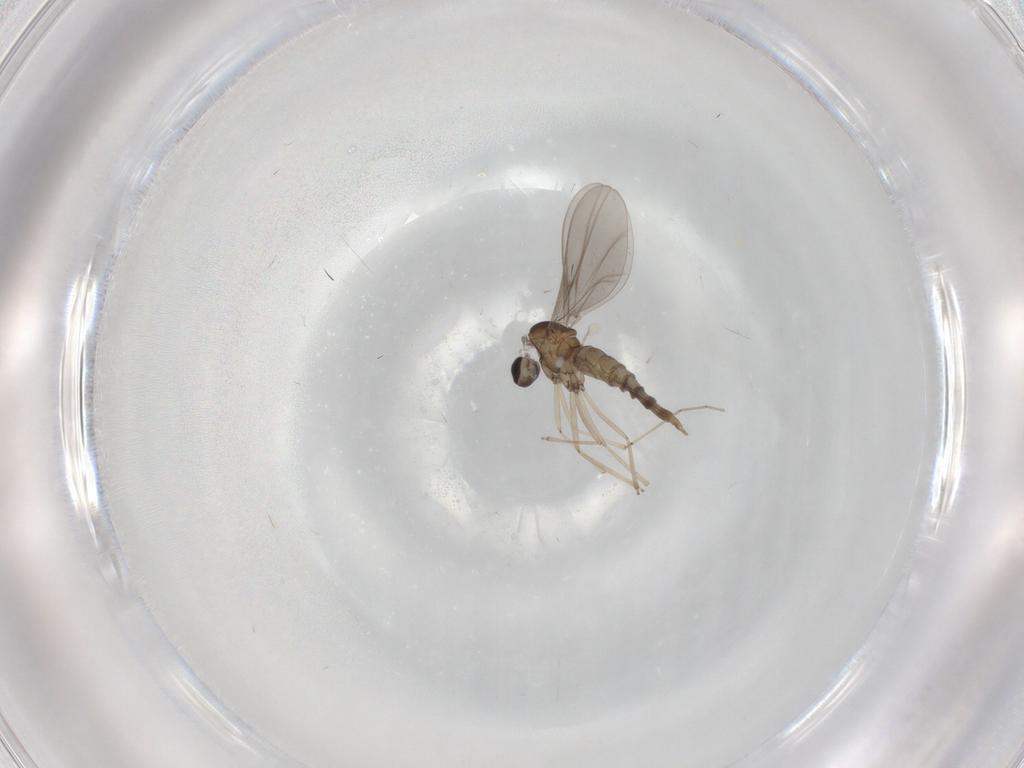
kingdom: Animalia
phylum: Arthropoda
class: Insecta
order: Diptera
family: Cecidomyiidae
